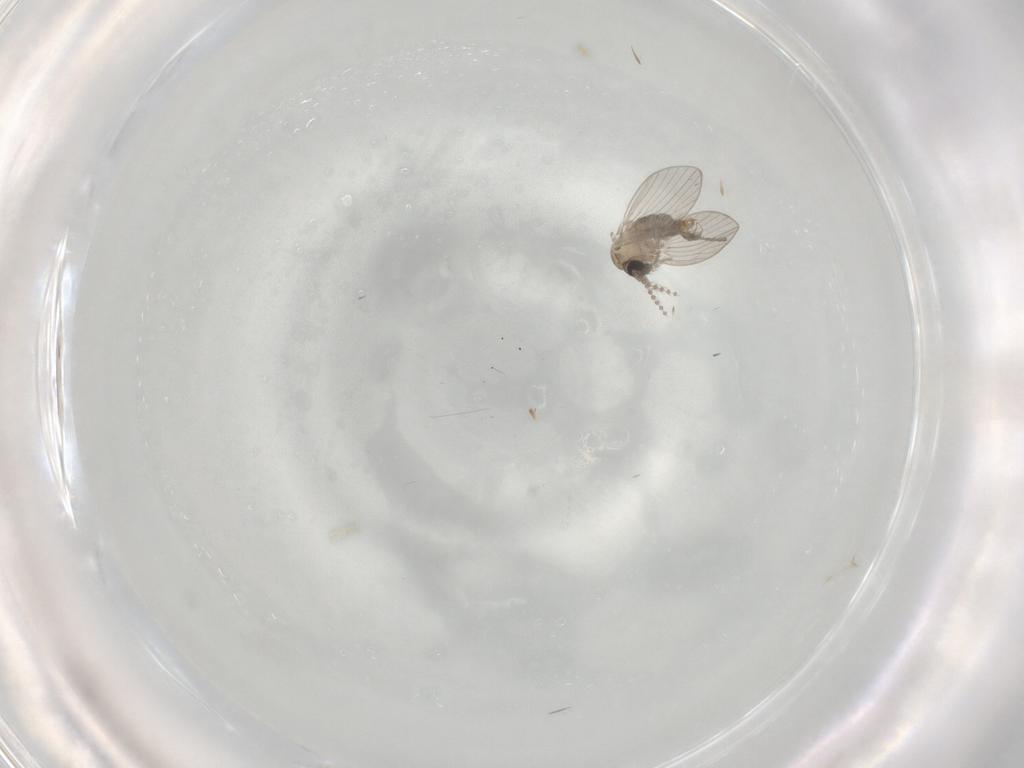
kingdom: Animalia
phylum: Arthropoda
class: Insecta
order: Diptera
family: Psychodidae
